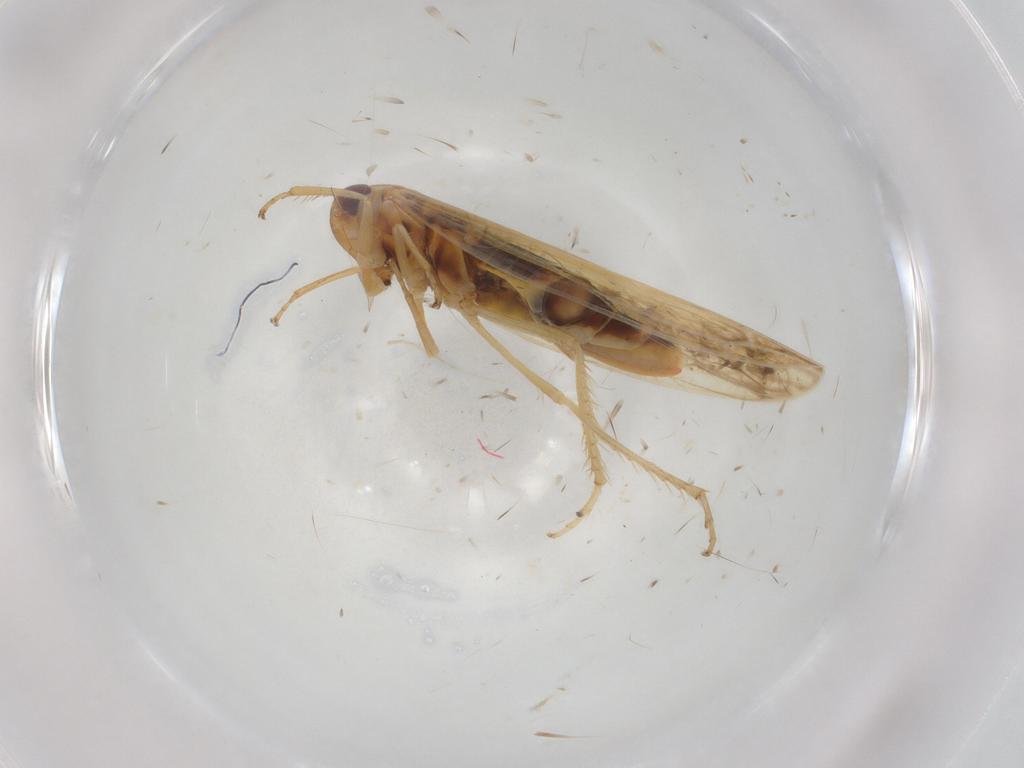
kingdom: Animalia
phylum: Arthropoda
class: Insecta
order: Hemiptera
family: Cicadellidae
